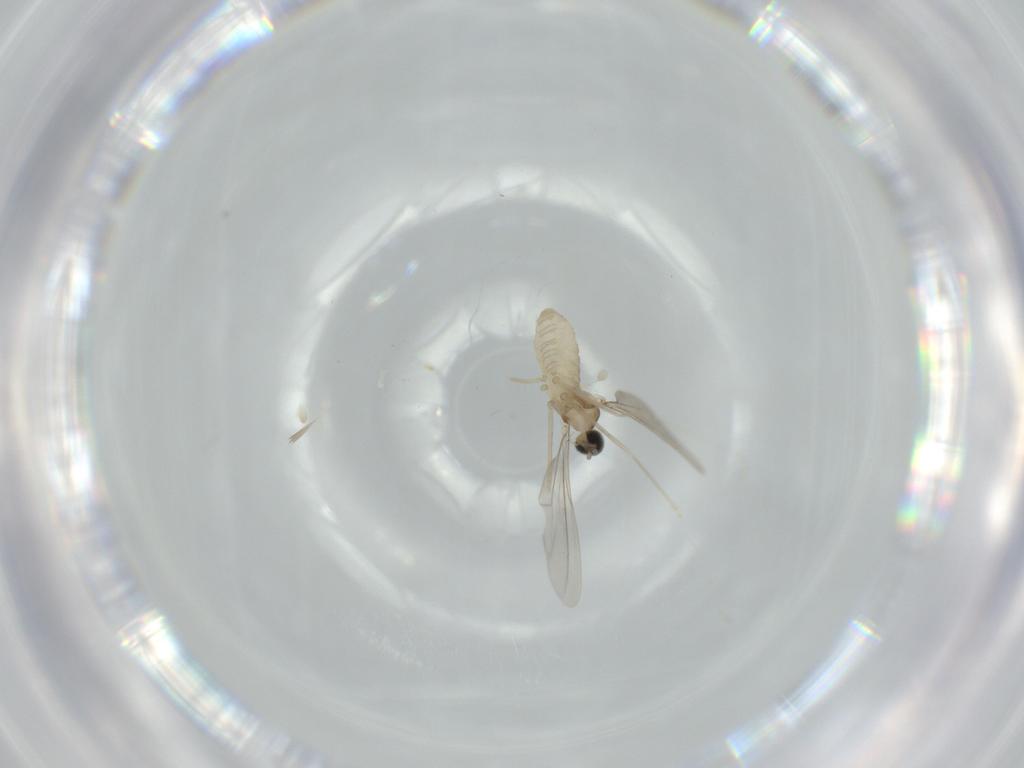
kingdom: Animalia
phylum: Arthropoda
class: Insecta
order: Diptera
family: Cecidomyiidae
